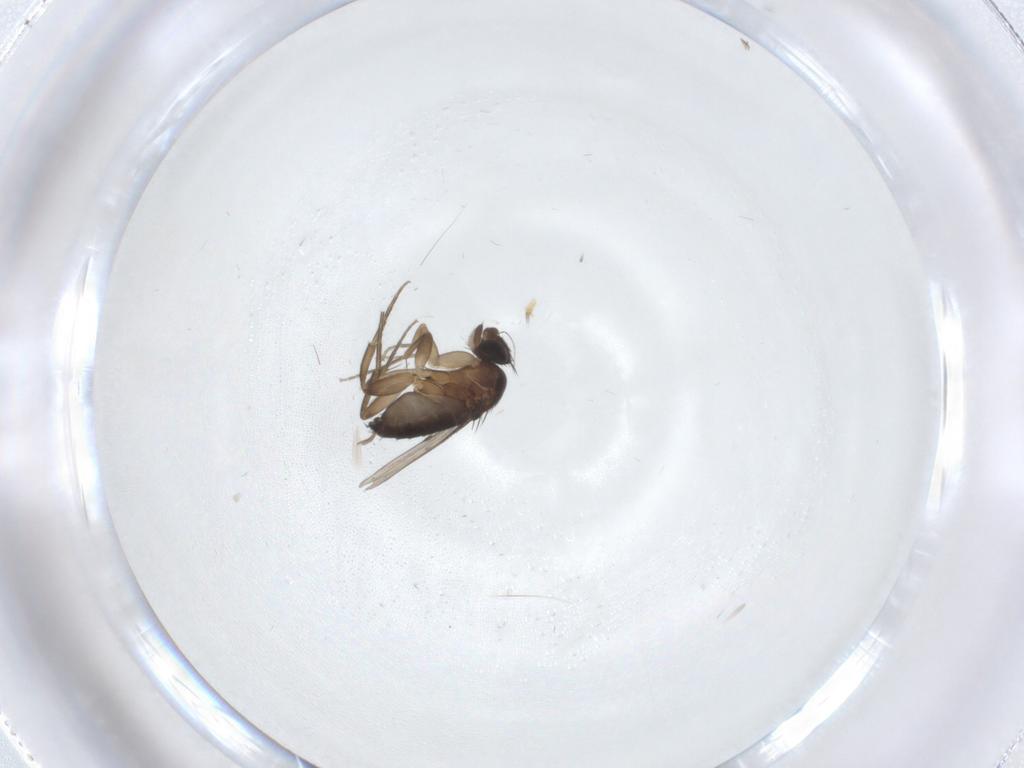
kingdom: Animalia
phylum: Arthropoda
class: Insecta
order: Diptera
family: Phoridae
